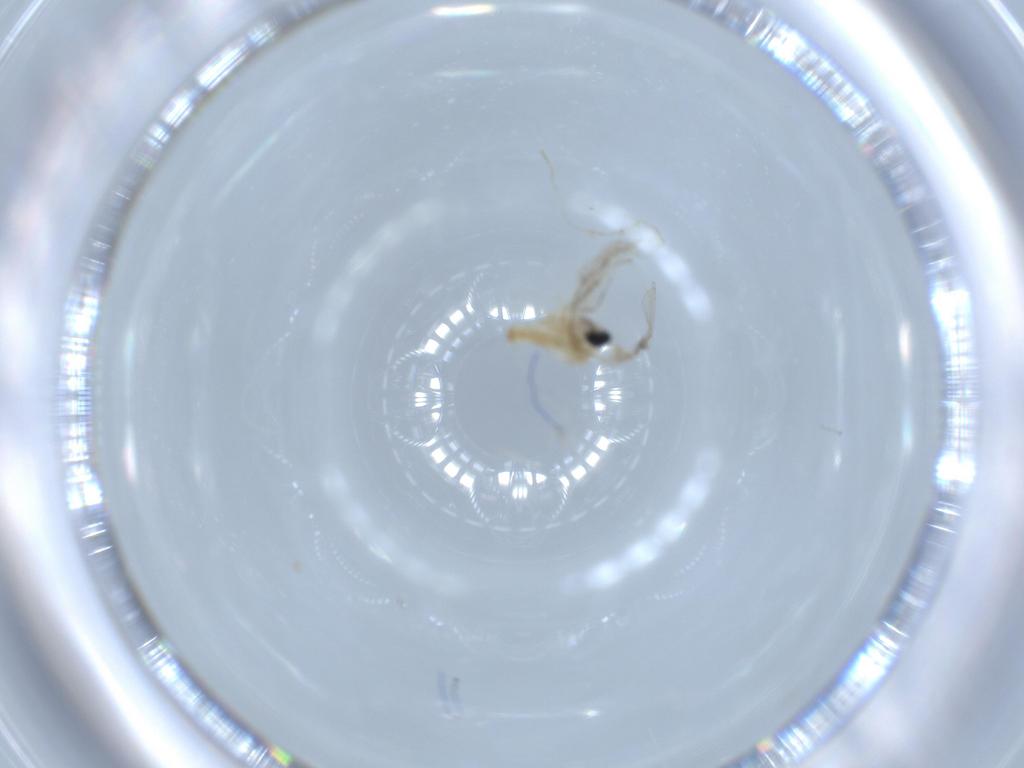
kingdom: Animalia
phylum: Arthropoda
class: Insecta
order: Diptera
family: Cecidomyiidae
